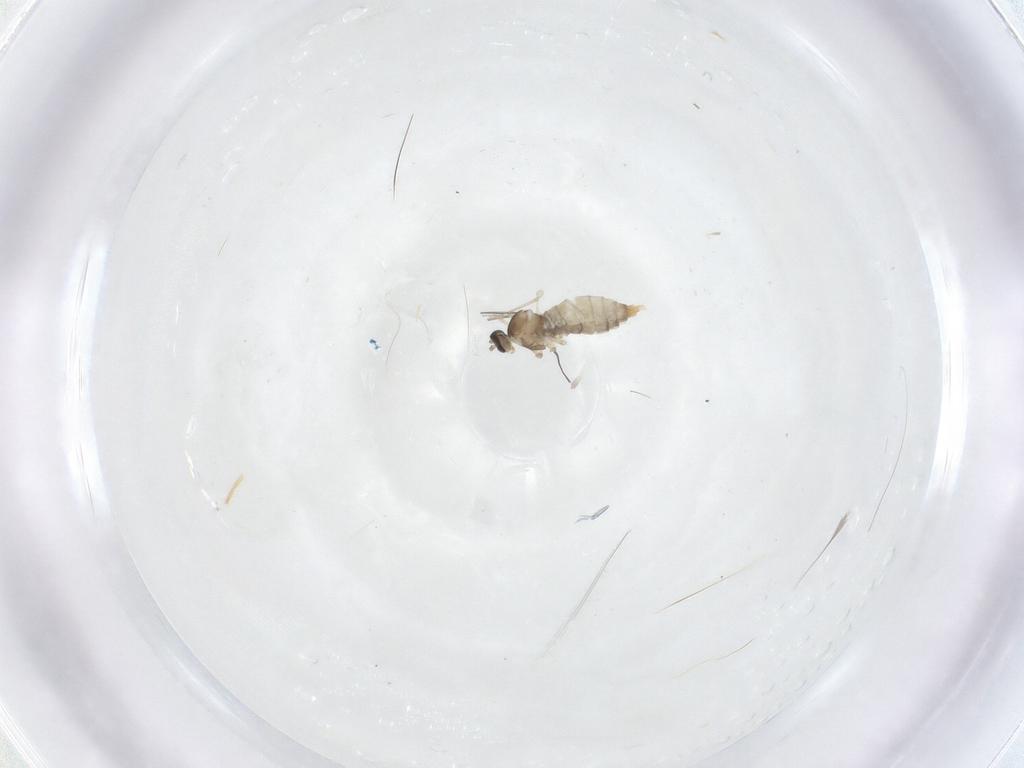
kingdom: Animalia
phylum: Arthropoda
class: Insecta
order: Diptera
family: Cecidomyiidae
